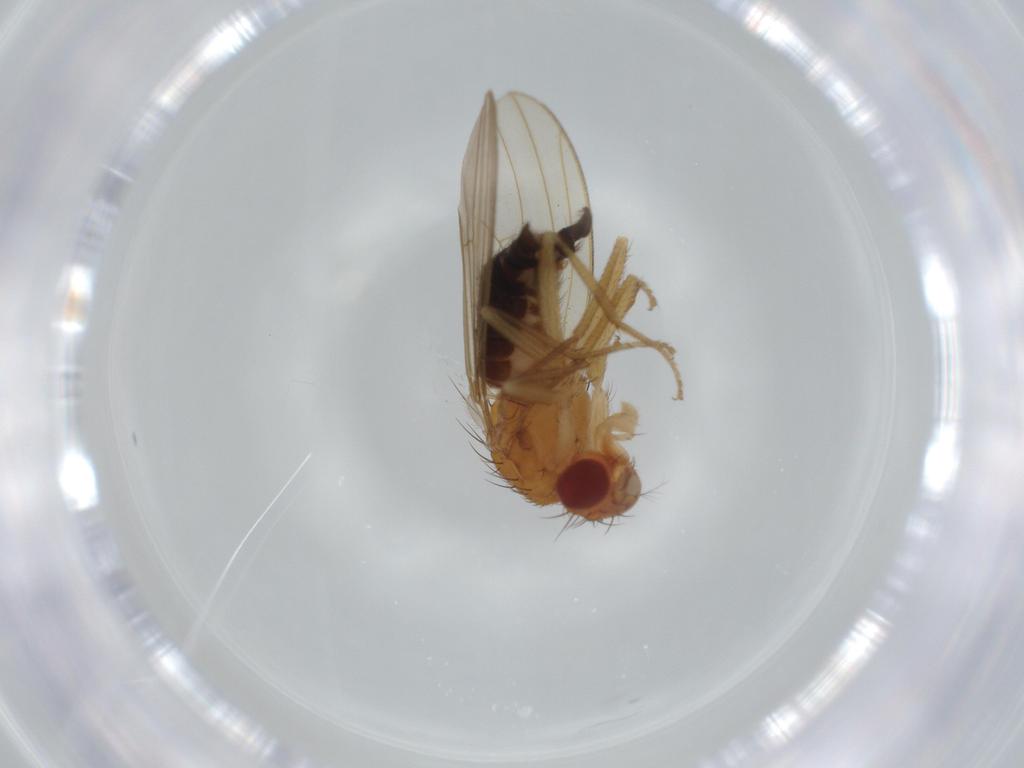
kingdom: Animalia
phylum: Arthropoda
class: Insecta
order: Diptera
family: Drosophilidae
